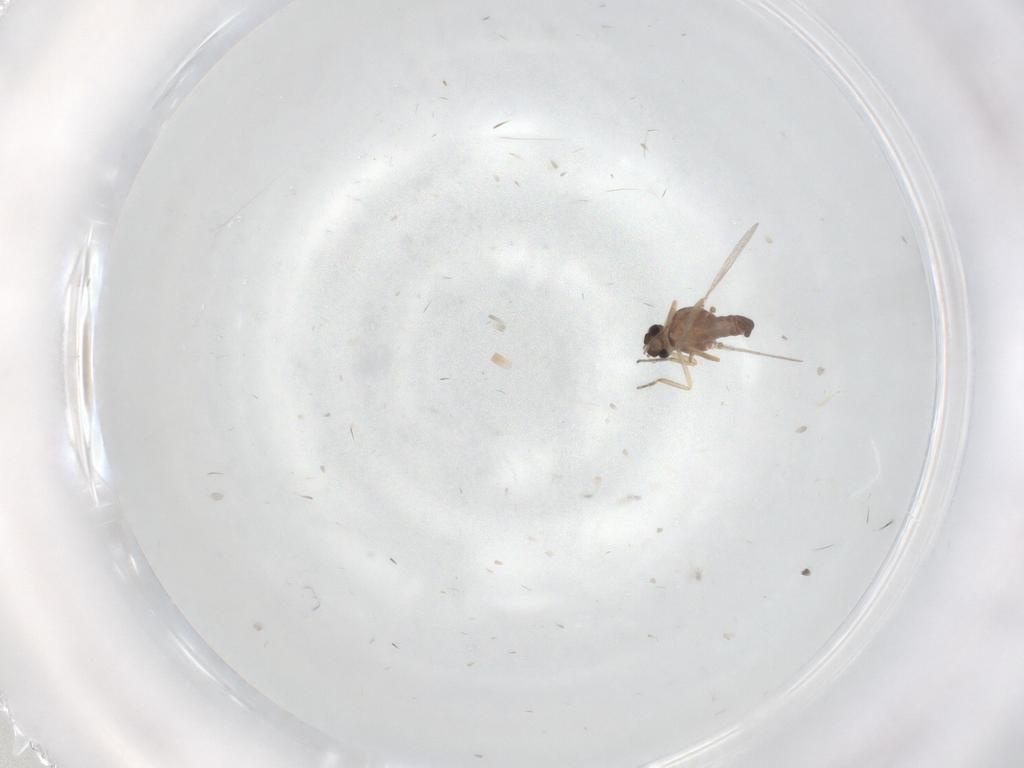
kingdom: Animalia
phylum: Arthropoda
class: Insecta
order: Diptera
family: Ceratopogonidae
